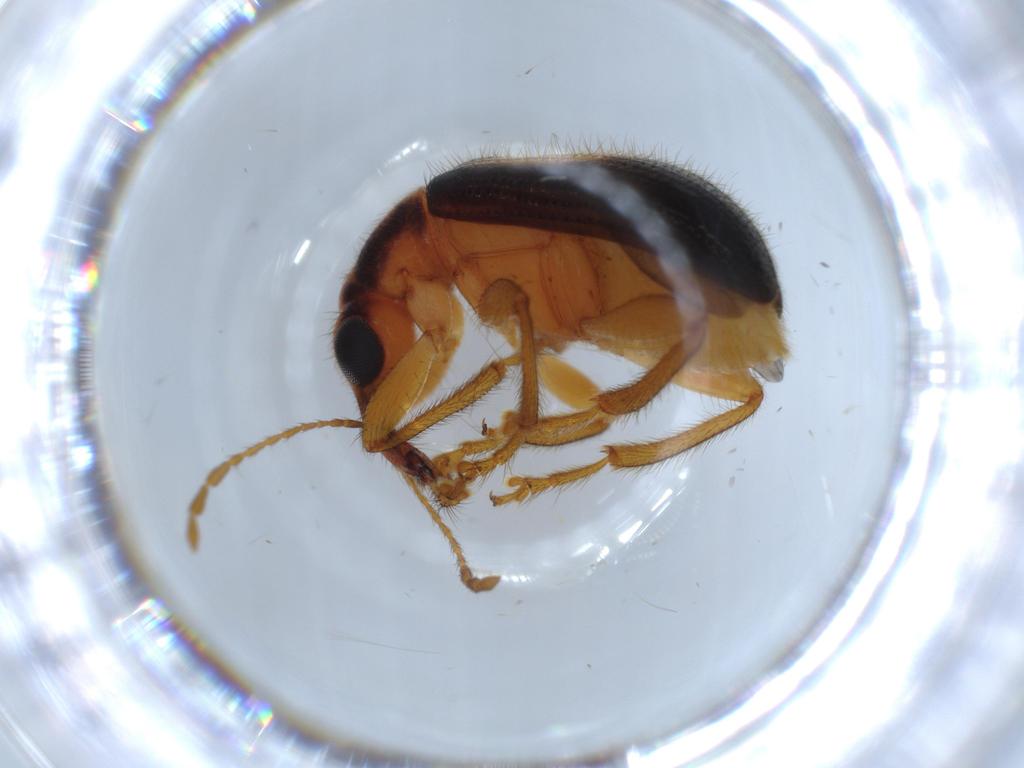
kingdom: Animalia
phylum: Arthropoda
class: Insecta
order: Coleoptera
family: Attelabidae
